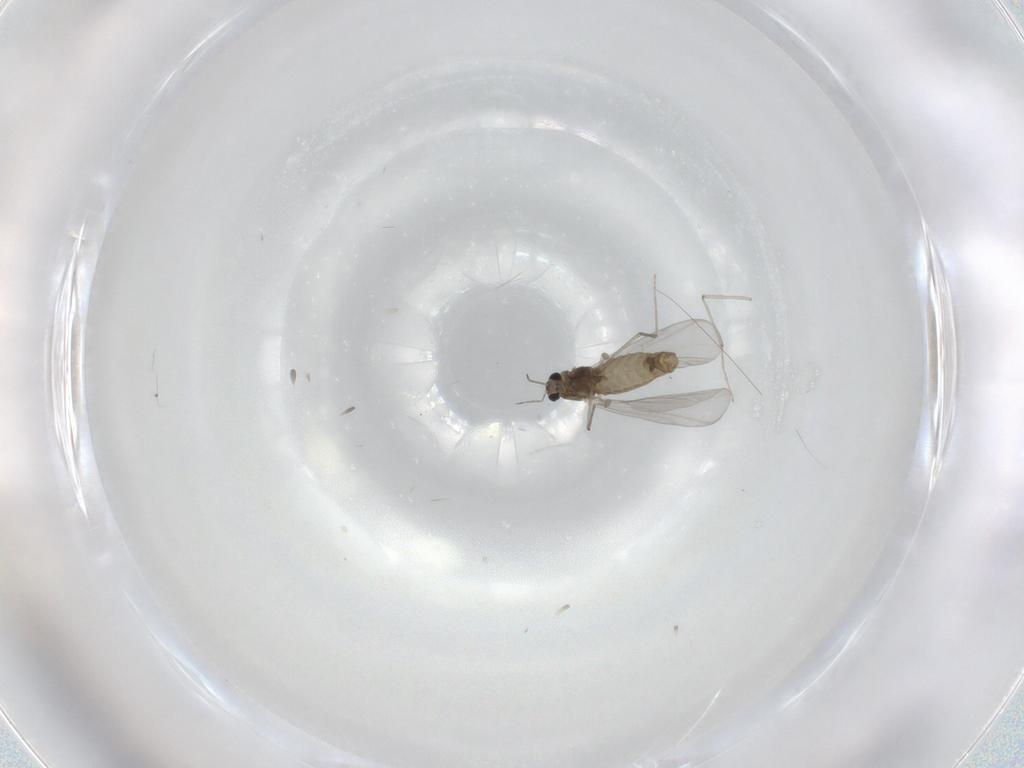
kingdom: Animalia
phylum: Arthropoda
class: Insecta
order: Diptera
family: Chironomidae
